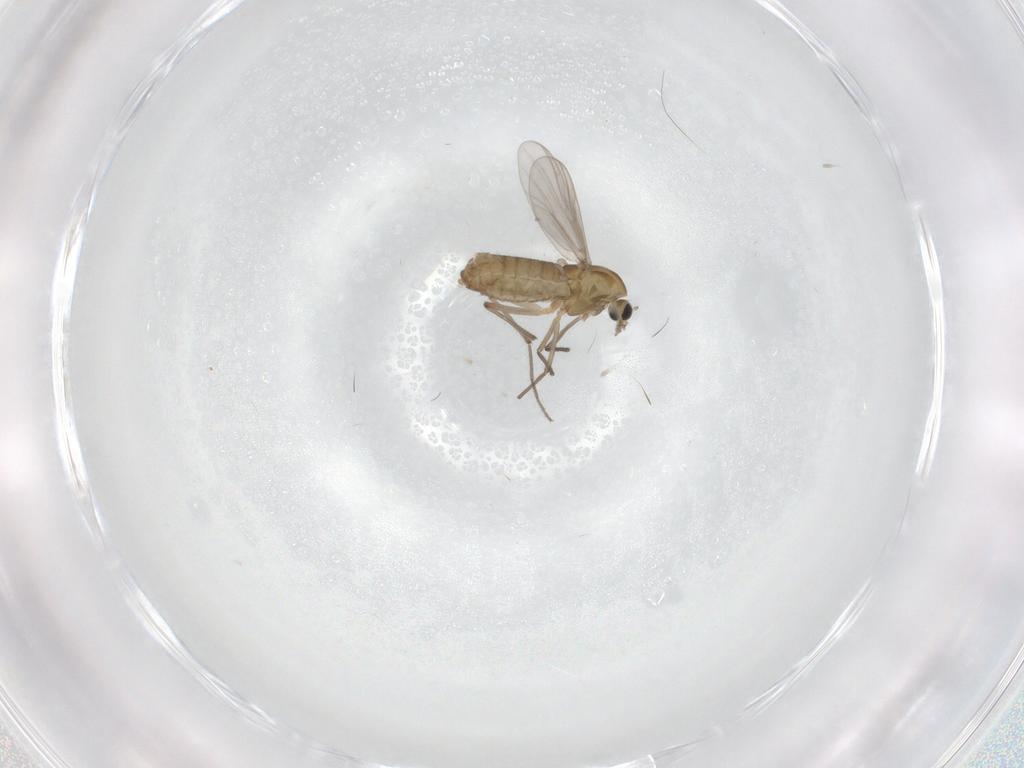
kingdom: Animalia
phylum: Arthropoda
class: Insecta
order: Diptera
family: Chironomidae
